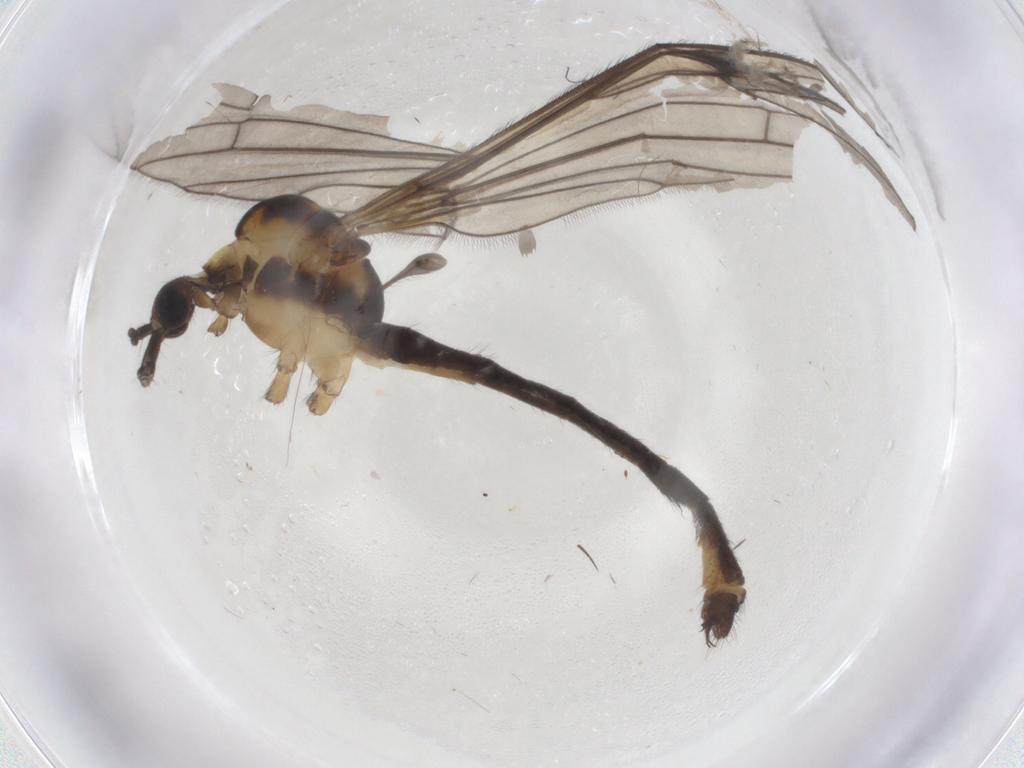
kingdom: Animalia
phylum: Arthropoda
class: Insecta
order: Diptera
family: Limoniidae
